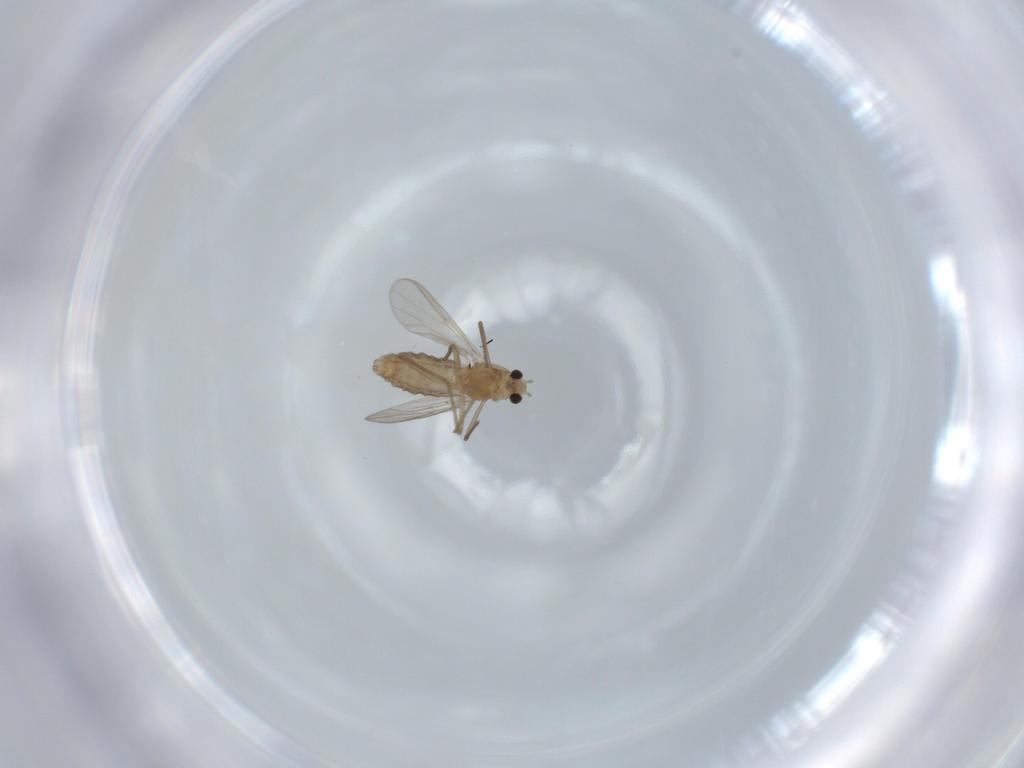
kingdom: Animalia
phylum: Arthropoda
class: Insecta
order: Diptera
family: Chironomidae
